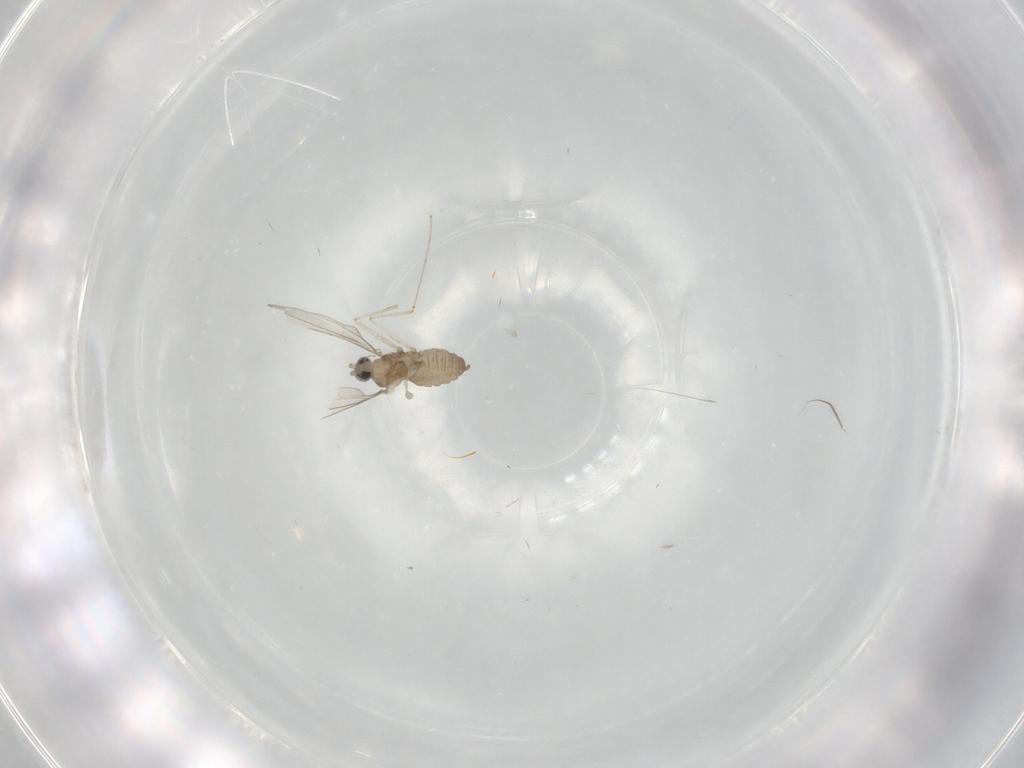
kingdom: Animalia
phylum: Arthropoda
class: Insecta
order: Diptera
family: Cecidomyiidae
